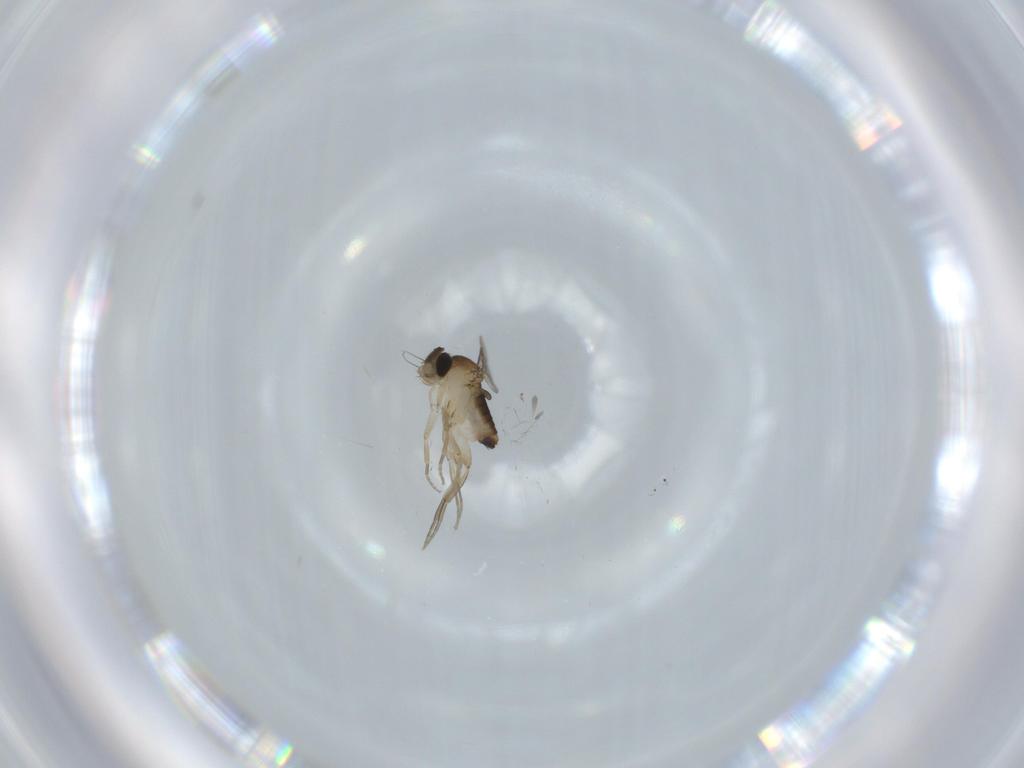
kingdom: Animalia
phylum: Arthropoda
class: Insecta
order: Diptera
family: Phoridae
